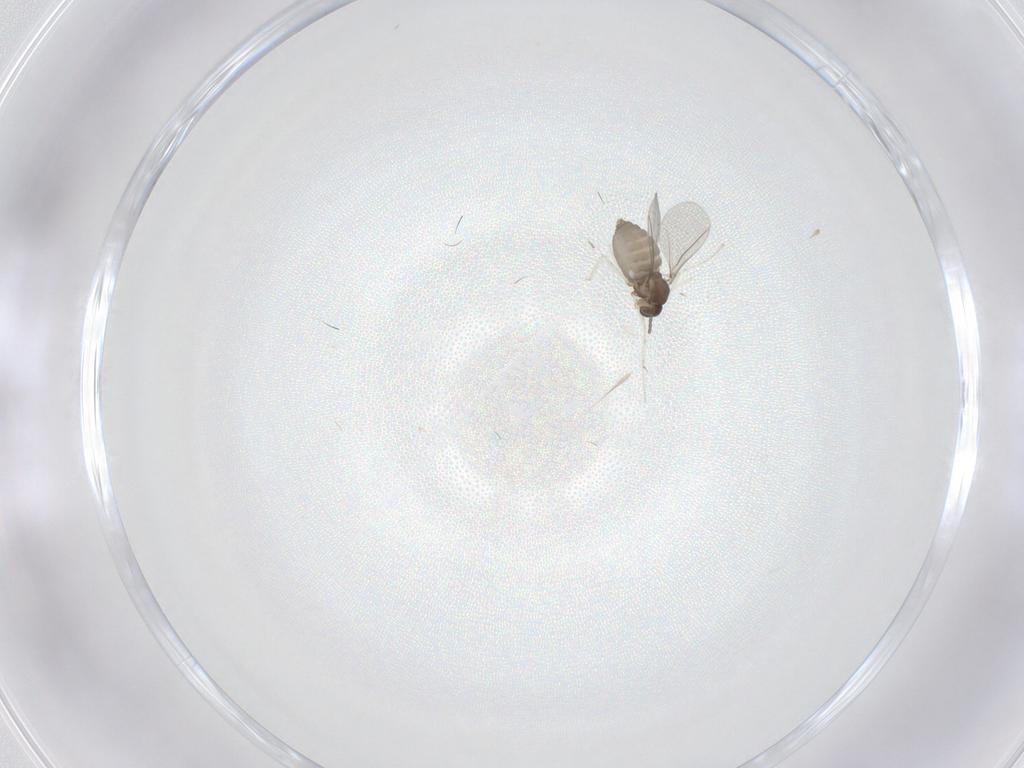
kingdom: Animalia
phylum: Arthropoda
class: Insecta
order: Diptera
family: Cecidomyiidae
